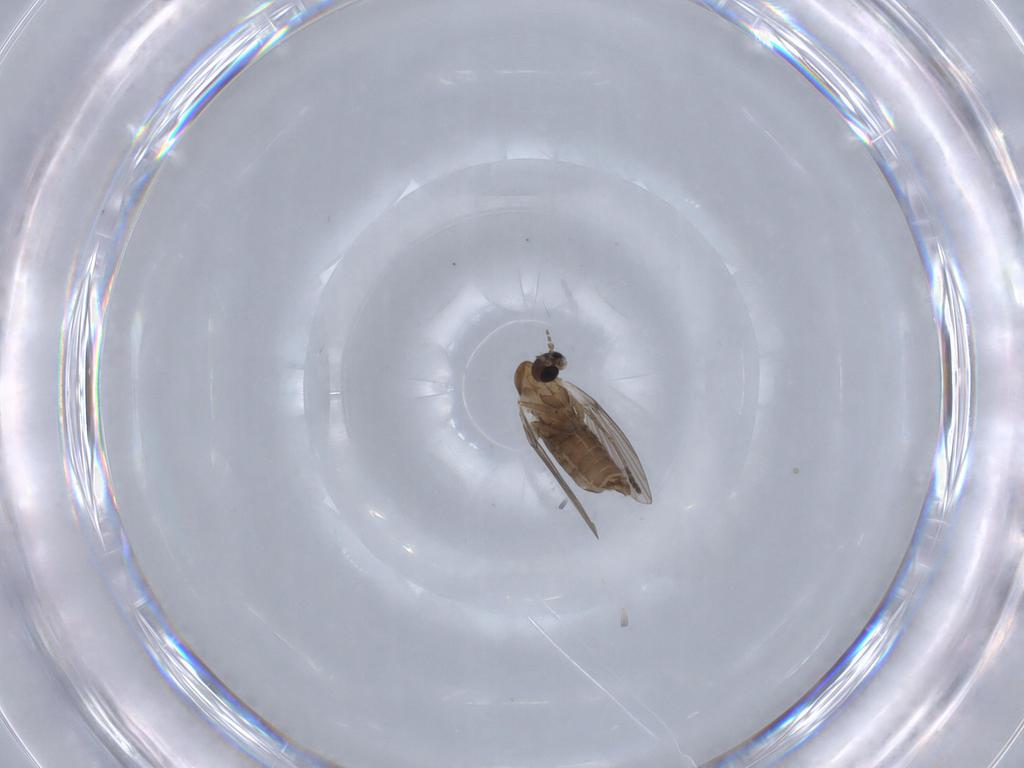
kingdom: Animalia
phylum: Arthropoda
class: Insecta
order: Diptera
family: Psychodidae
